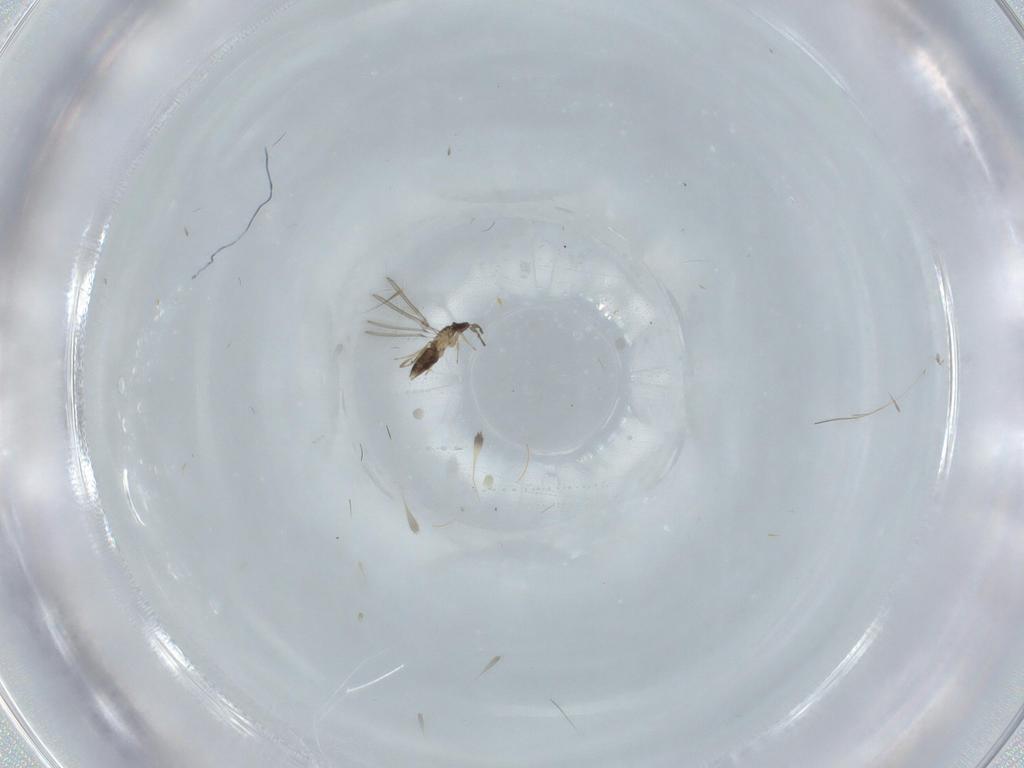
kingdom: Animalia
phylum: Arthropoda
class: Insecta
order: Hymenoptera
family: Mymaridae
